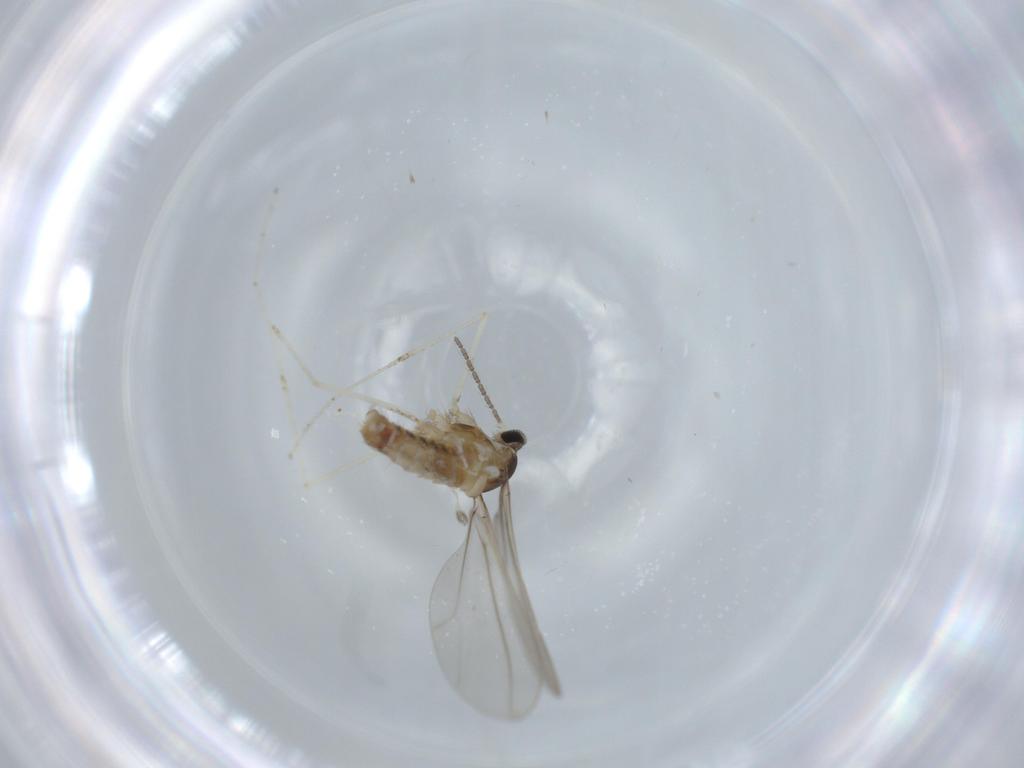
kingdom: Animalia
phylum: Arthropoda
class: Insecta
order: Diptera
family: Cecidomyiidae
